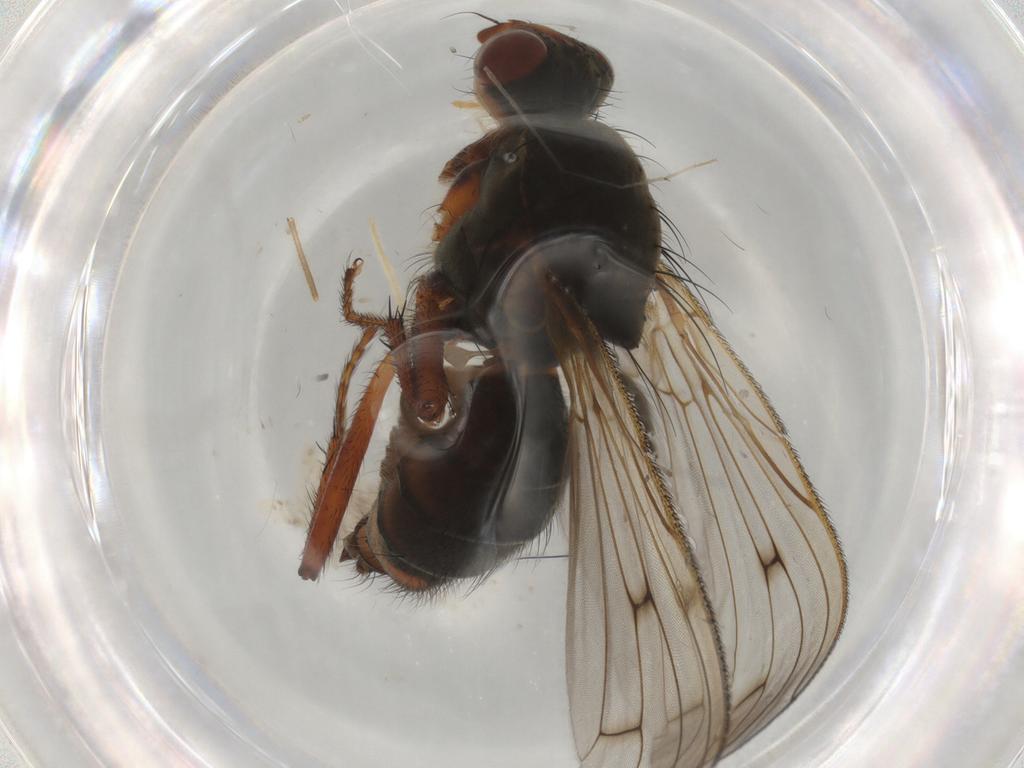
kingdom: Animalia
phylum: Arthropoda
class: Insecta
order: Diptera
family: Scathophagidae
